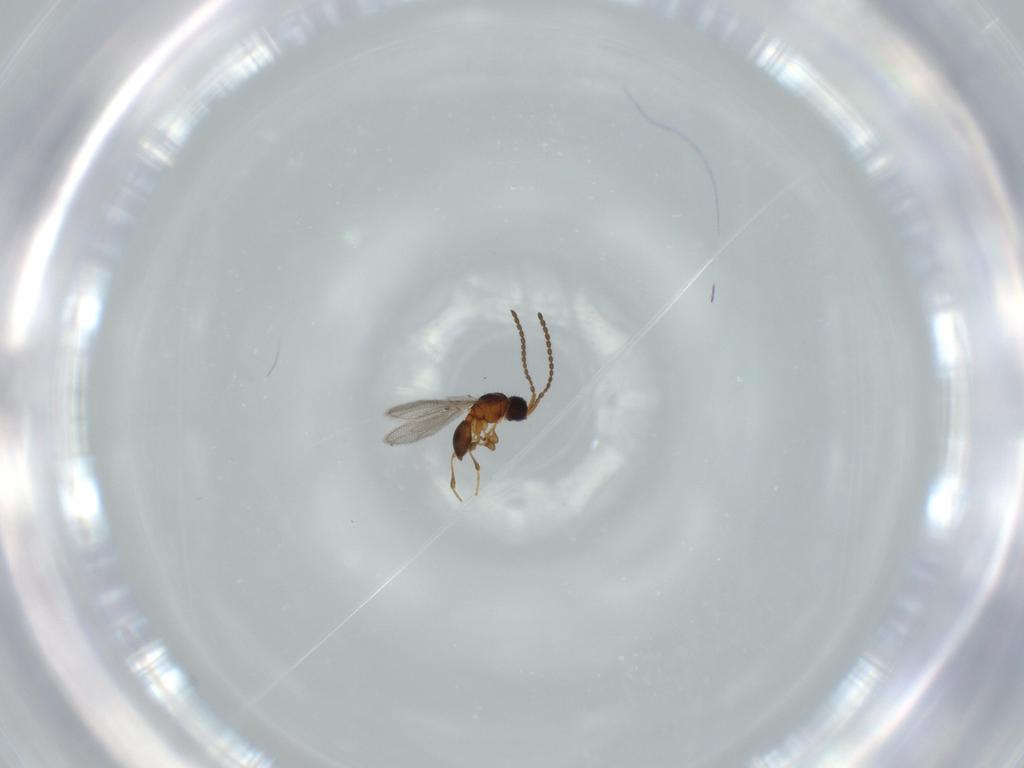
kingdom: Animalia
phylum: Arthropoda
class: Insecta
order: Hymenoptera
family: Diapriidae
